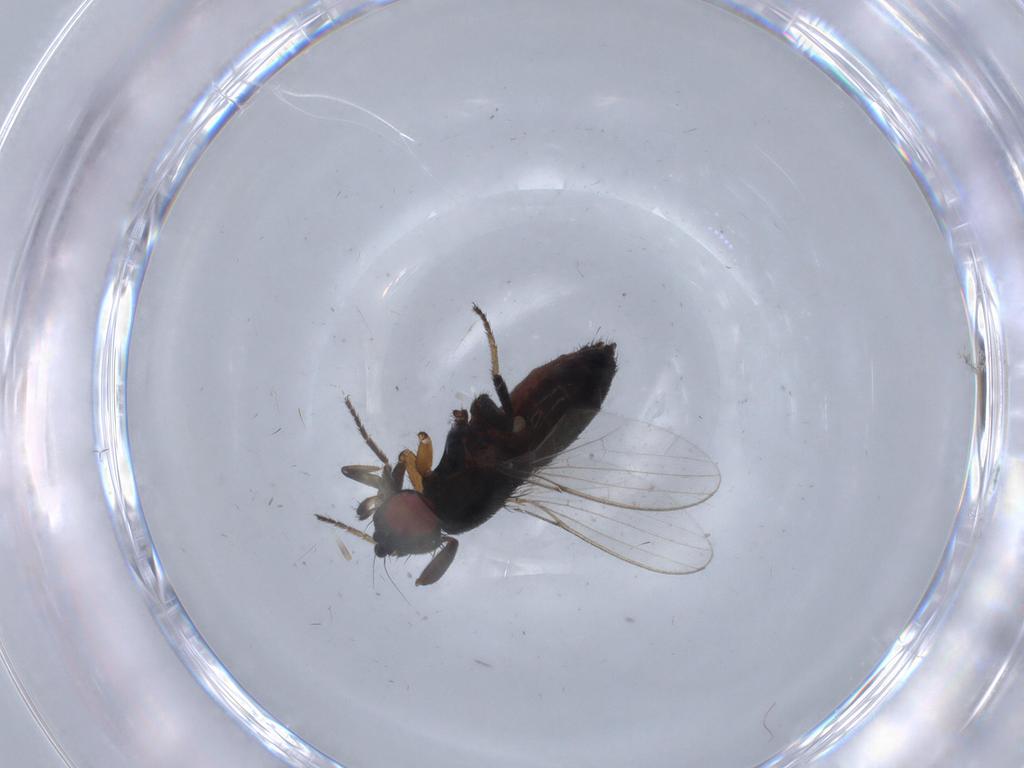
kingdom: Animalia
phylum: Arthropoda
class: Insecta
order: Diptera
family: Milichiidae
